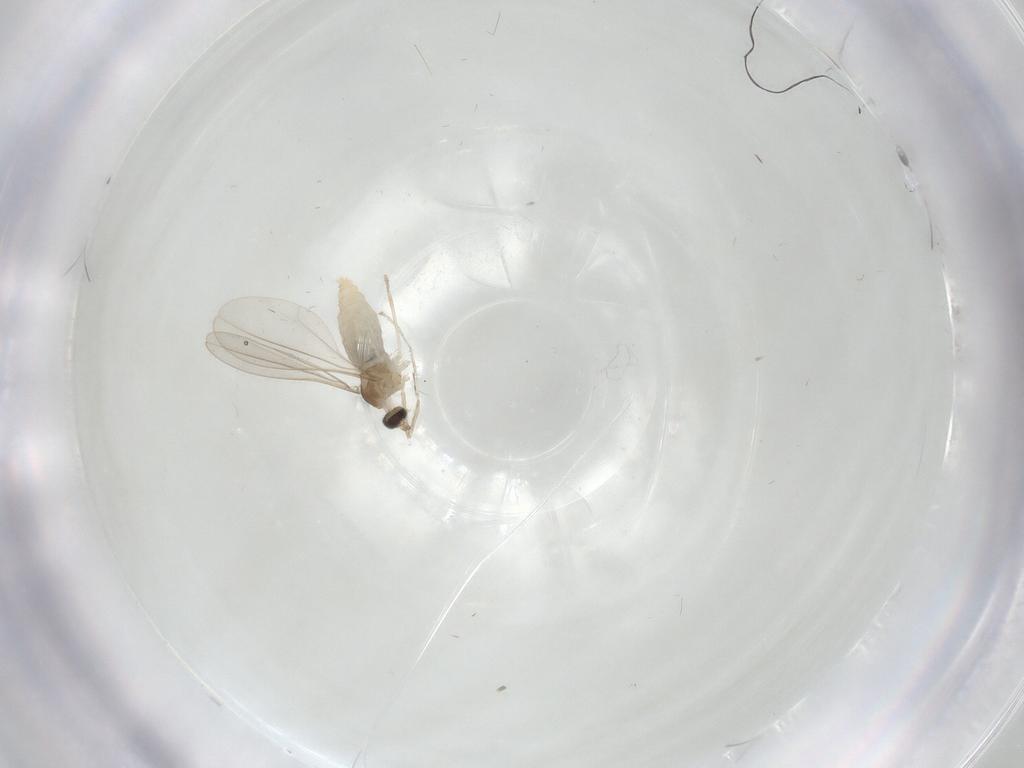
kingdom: Animalia
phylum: Arthropoda
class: Insecta
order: Diptera
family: Cecidomyiidae
